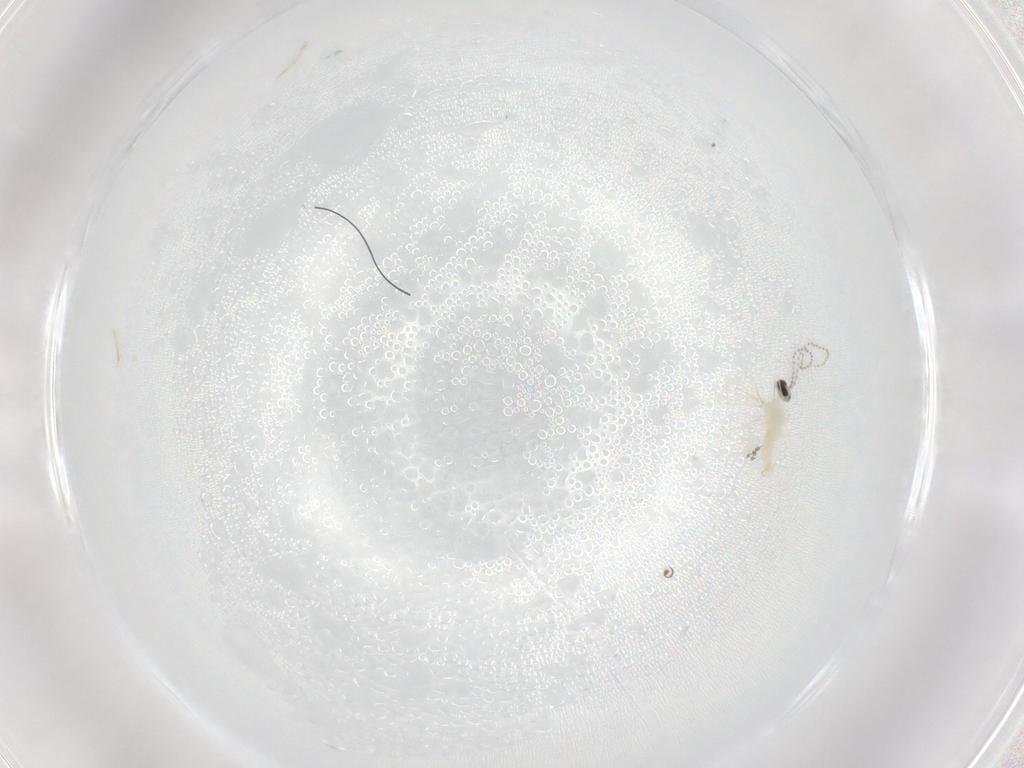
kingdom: Animalia
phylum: Arthropoda
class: Insecta
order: Diptera
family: Cecidomyiidae
